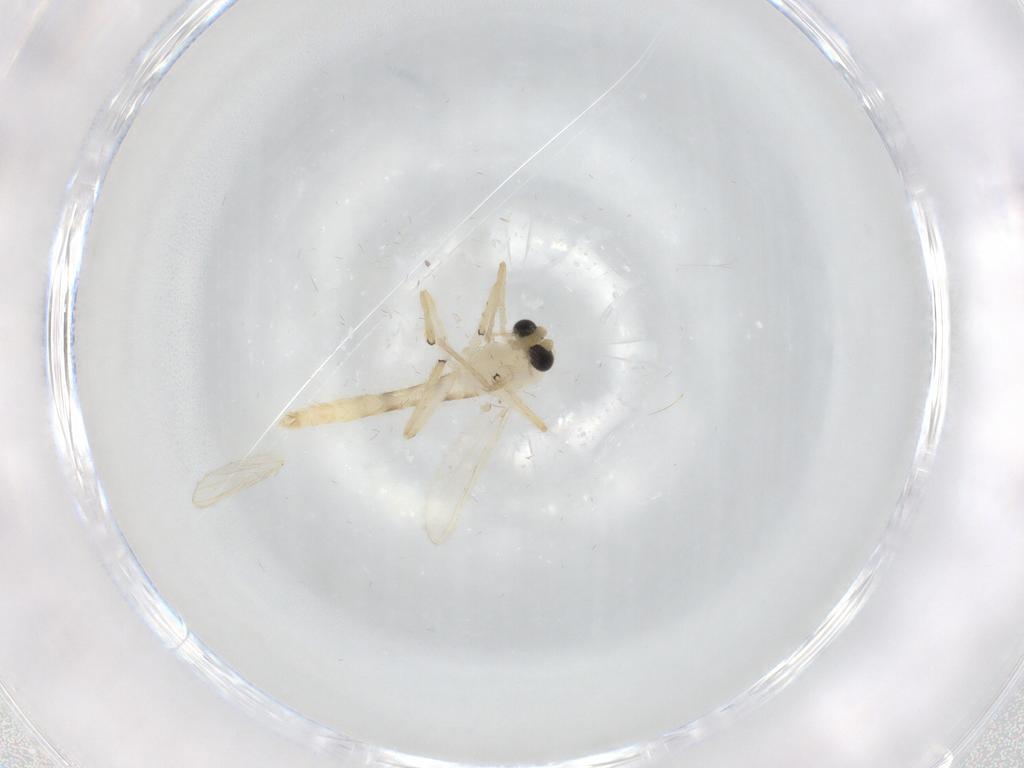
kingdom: Animalia
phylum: Arthropoda
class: Insecta
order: Diptera
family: Chironomidae
